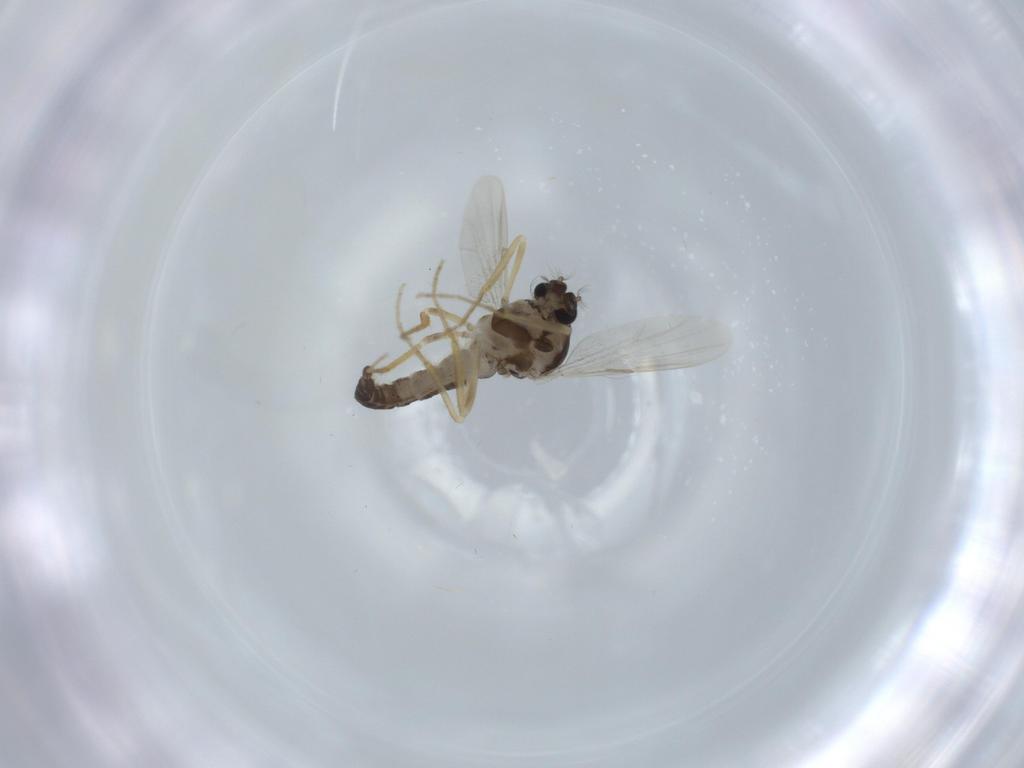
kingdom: Animalia
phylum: Arthropoda
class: Insecta
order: Diptera
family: Ceratopogonidae
